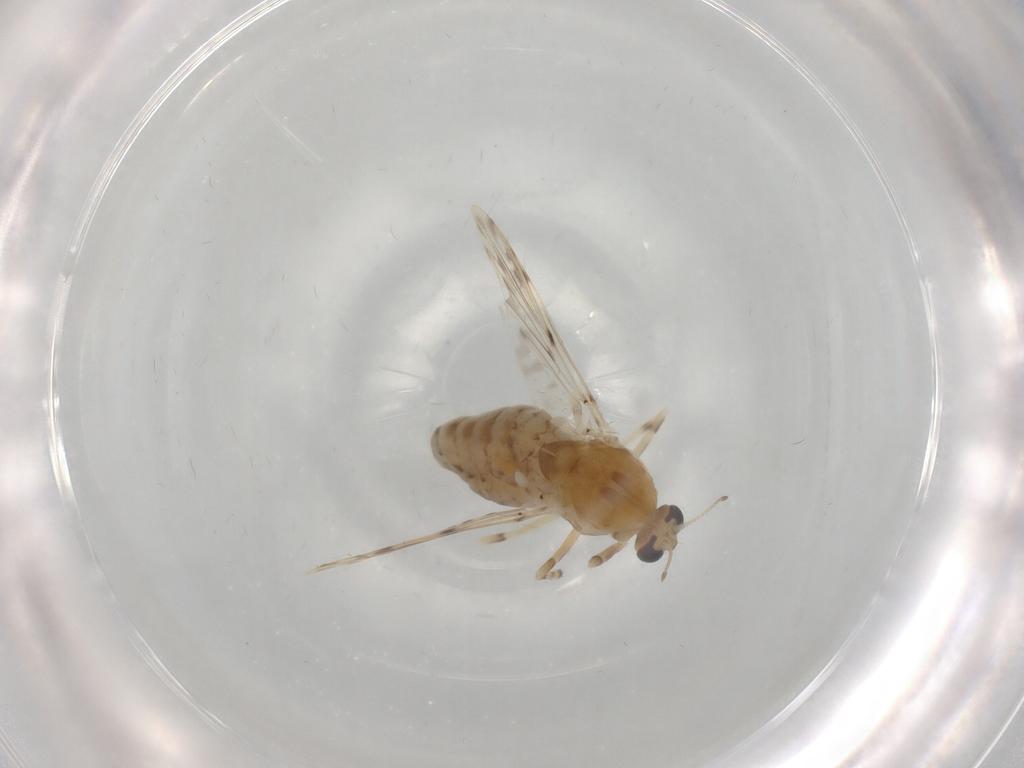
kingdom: Animalia
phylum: Arthropoda
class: Insecta
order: Diptera
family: Chironomidae
